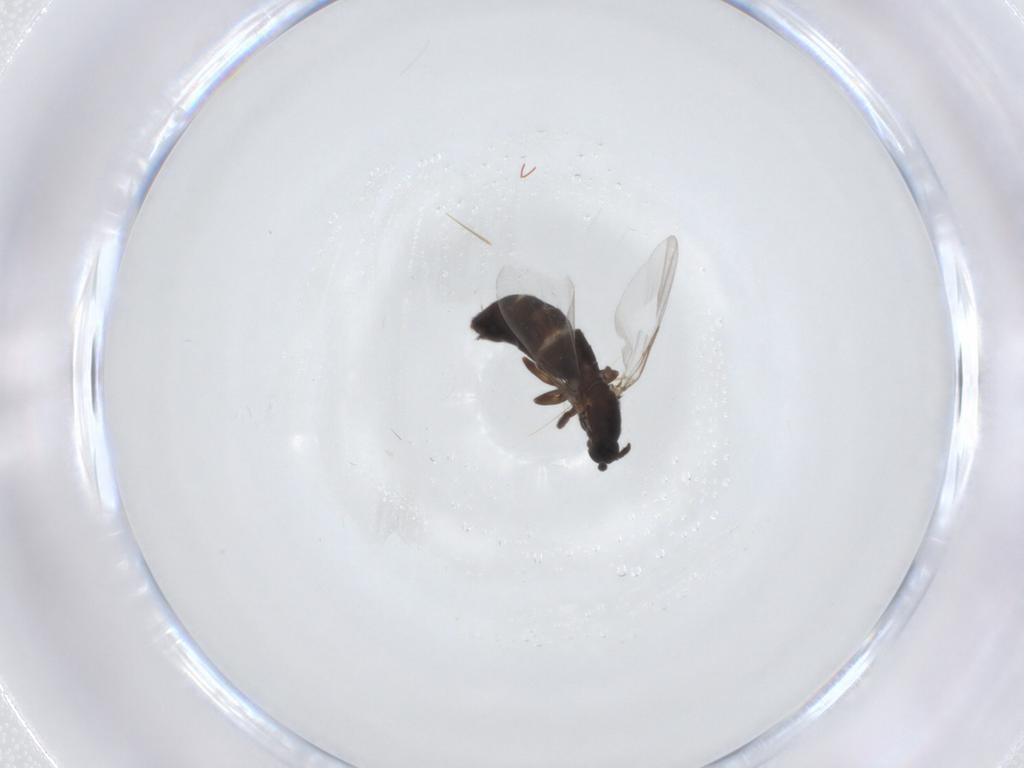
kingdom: Animalia
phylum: Arthropoda
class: Insecta
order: Diptera
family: Scatopsidae
